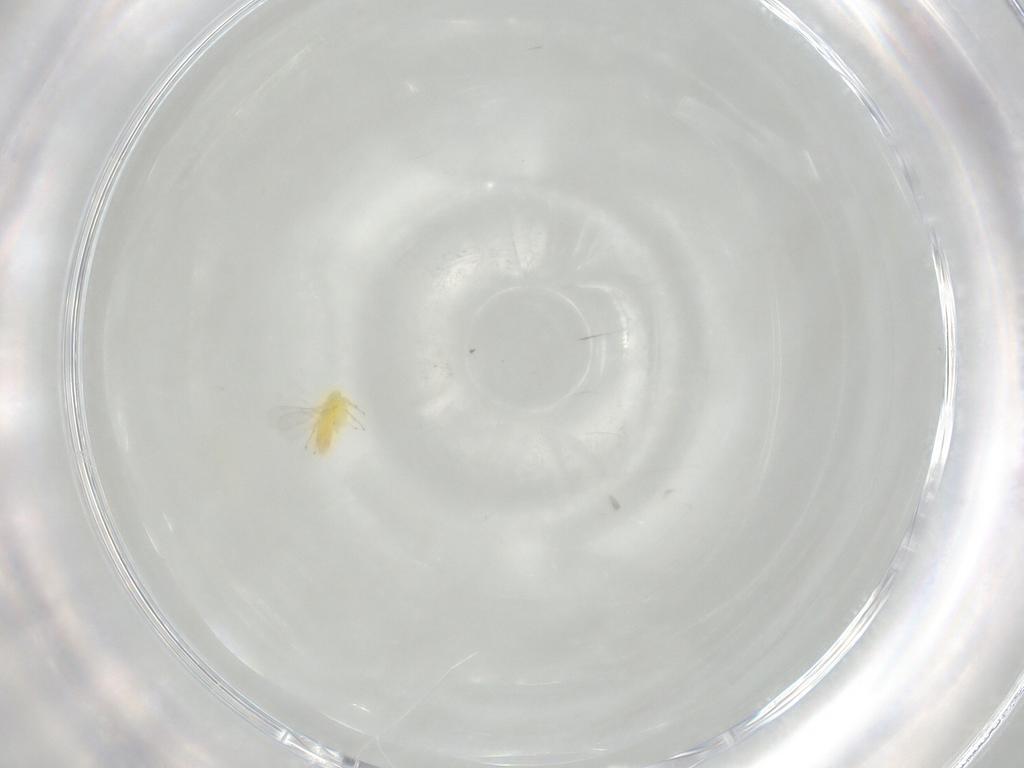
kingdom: Animalia
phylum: Arthropoda
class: Insecta
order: Hymenoptera
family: Aphelinidae
